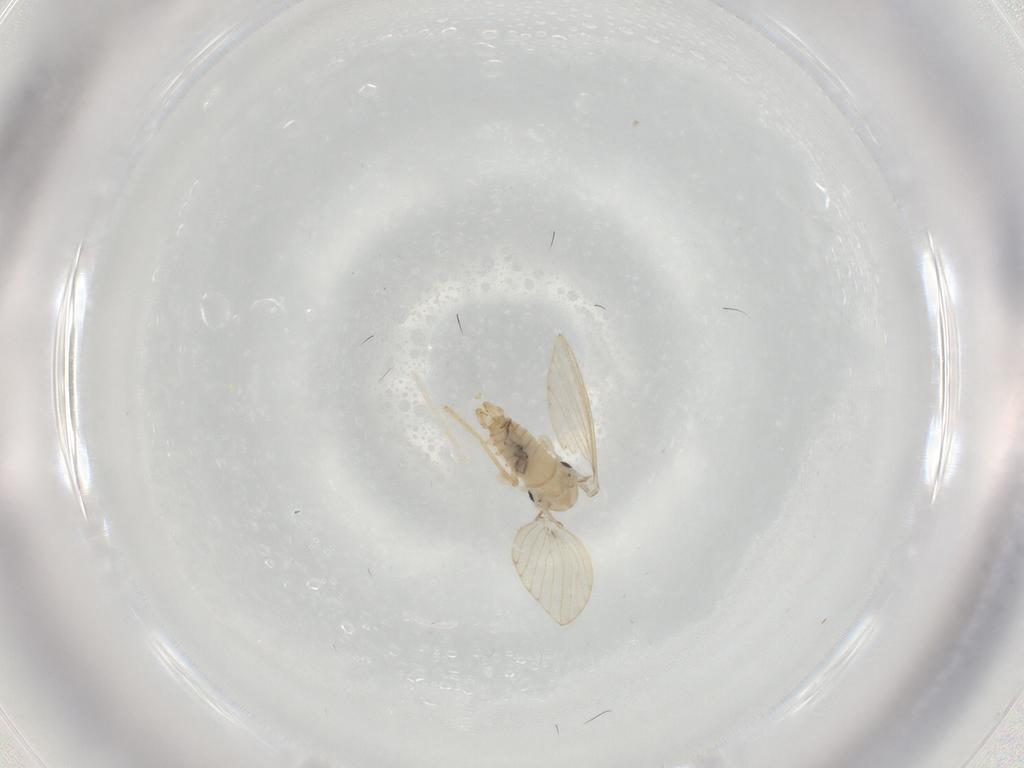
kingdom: Animalia
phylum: Arthropoda
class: Insecta
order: Diptera
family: Phoridae
